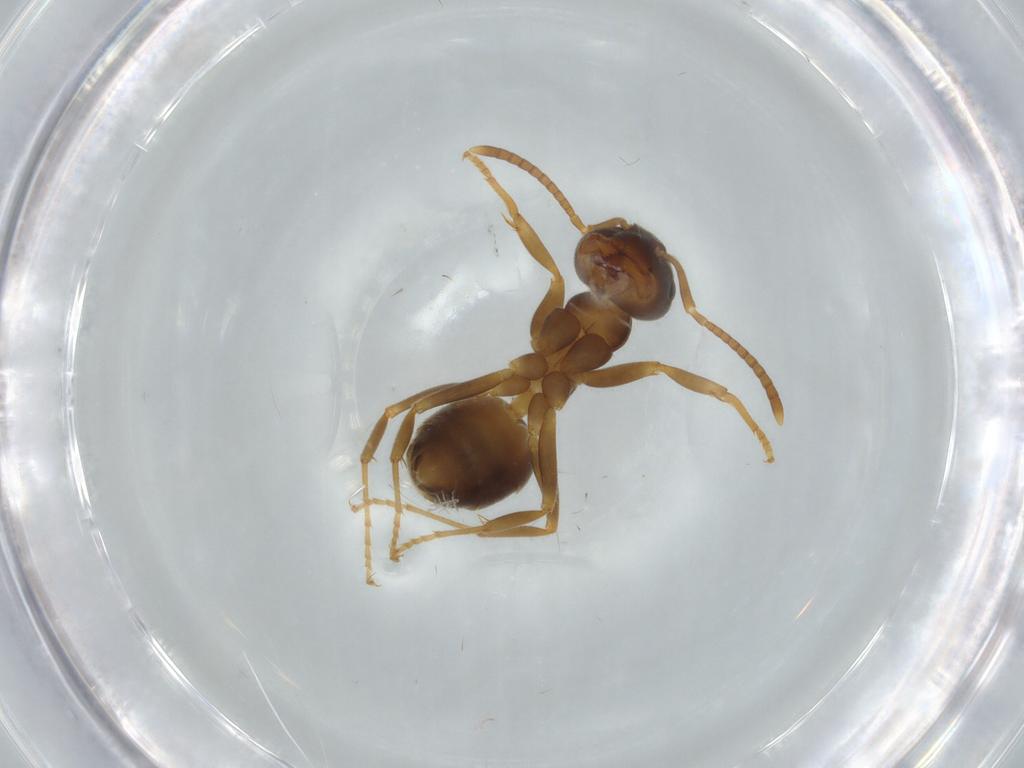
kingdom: Animalia
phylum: Arthropoda
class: Insecta
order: Hymenoptera
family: Formicidae
